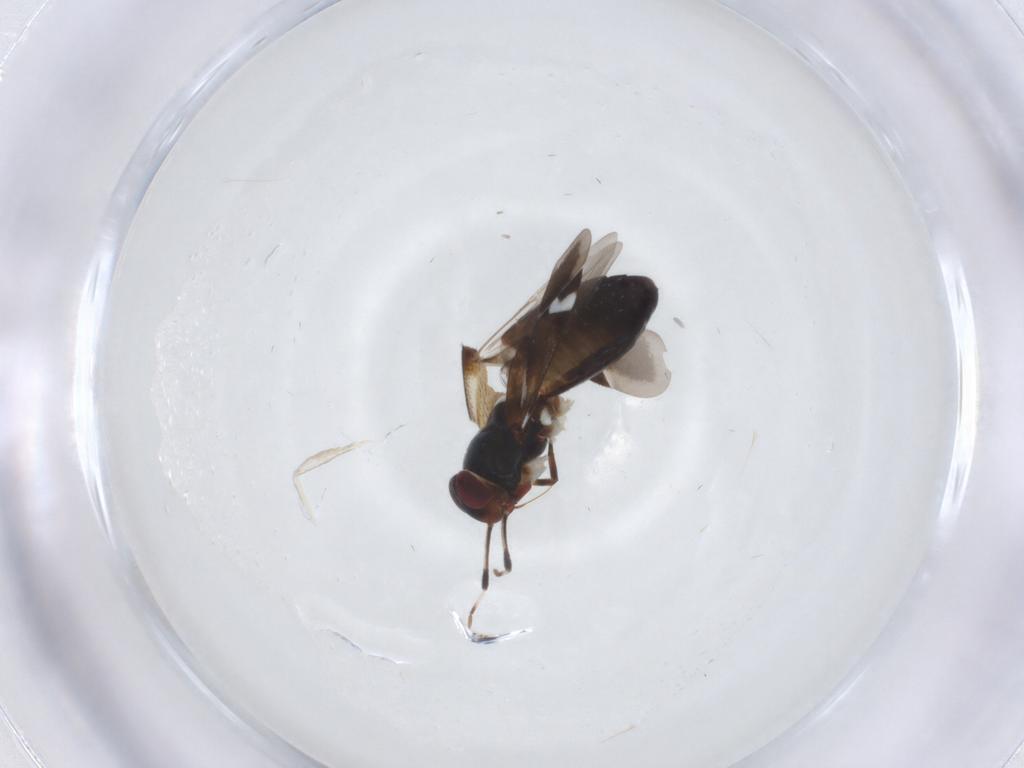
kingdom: Animalia
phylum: Arthropoda
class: Insecta
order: Hemiptera
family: Miridae
